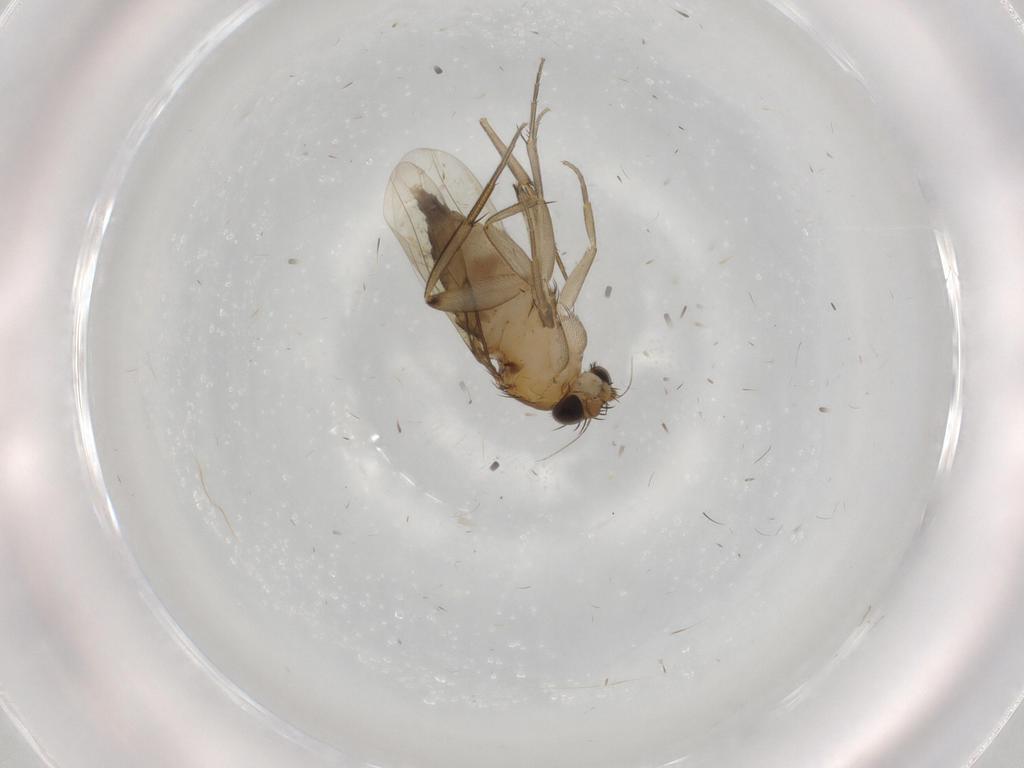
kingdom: Animalia
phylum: Arthropoda
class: Insecta
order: Diptera
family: Phoridae
